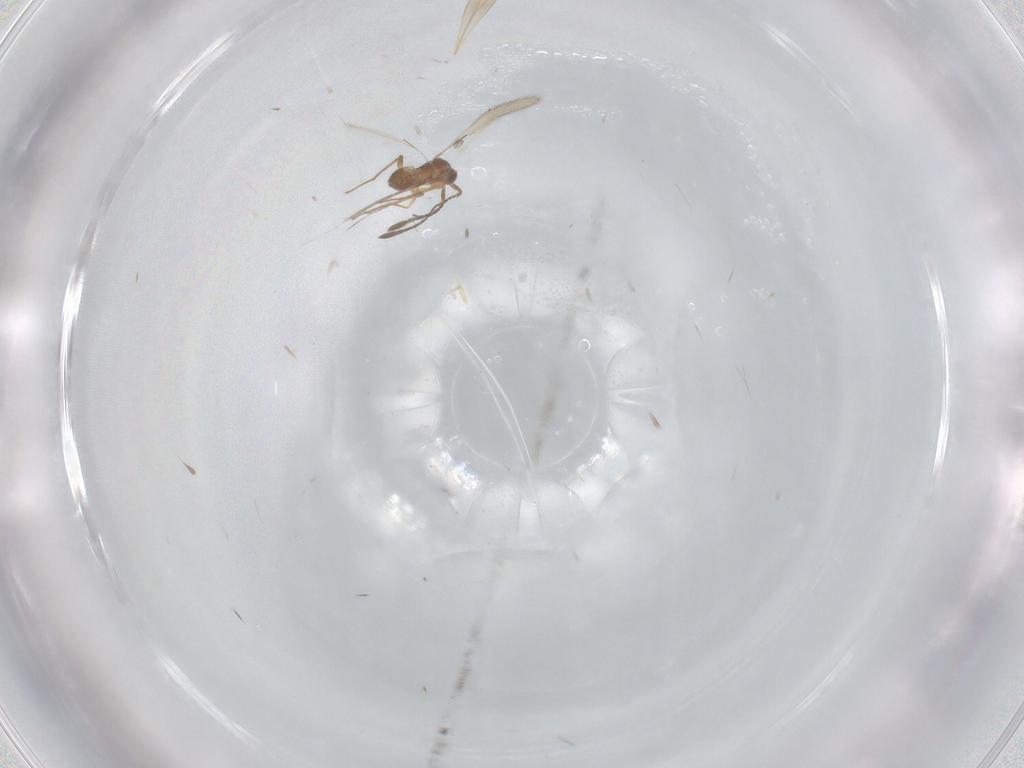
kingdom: Animalia
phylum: Arthropoda
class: Insecta
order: Hymenoptera
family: Mymaridae
